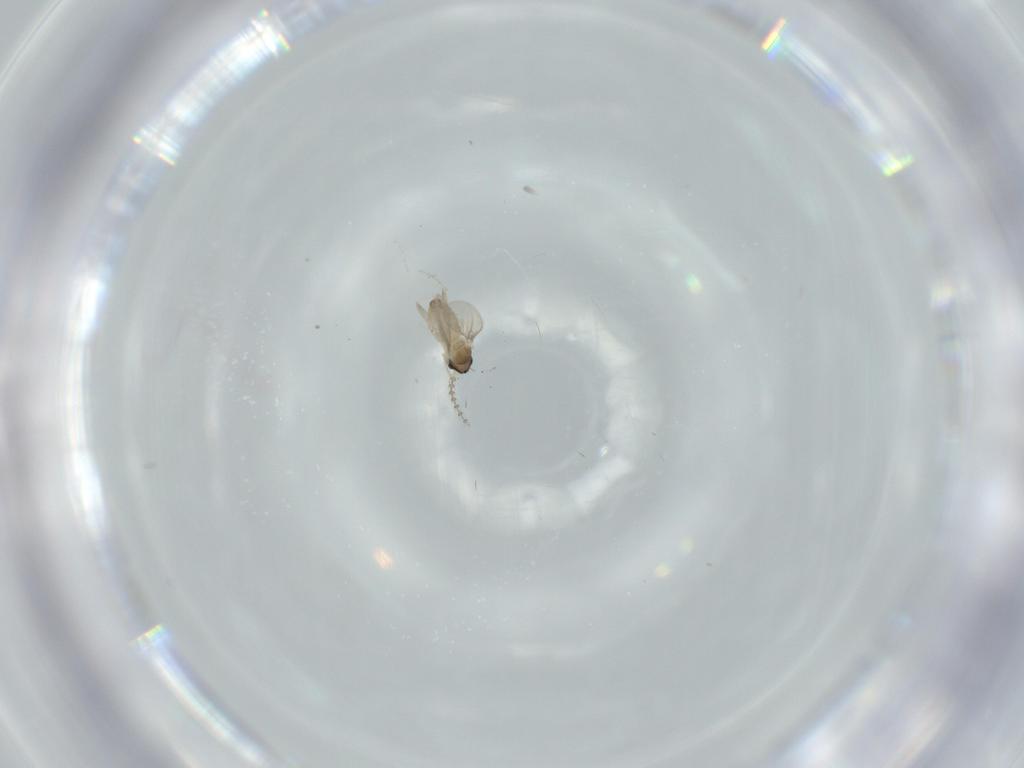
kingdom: Animalia
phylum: Arthropoda
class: Insecta
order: Diptera
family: Anthomyiidae
